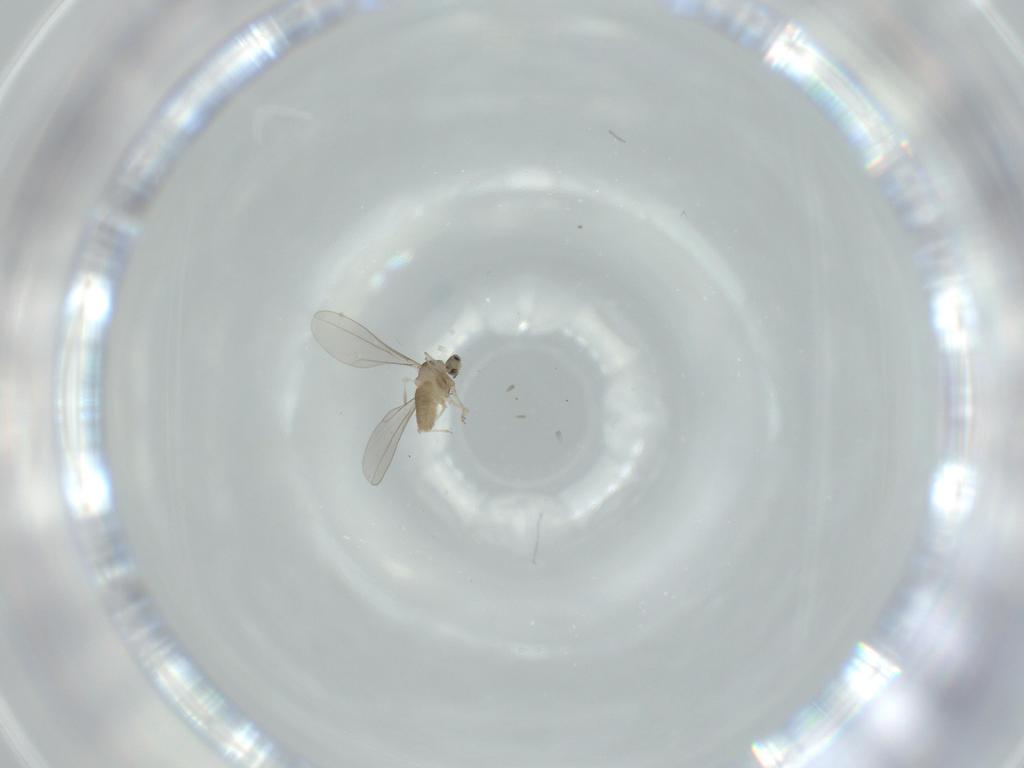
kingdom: Animalia
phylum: Arthropoda
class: Insecta
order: Diptera
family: Cecidomyiidae
